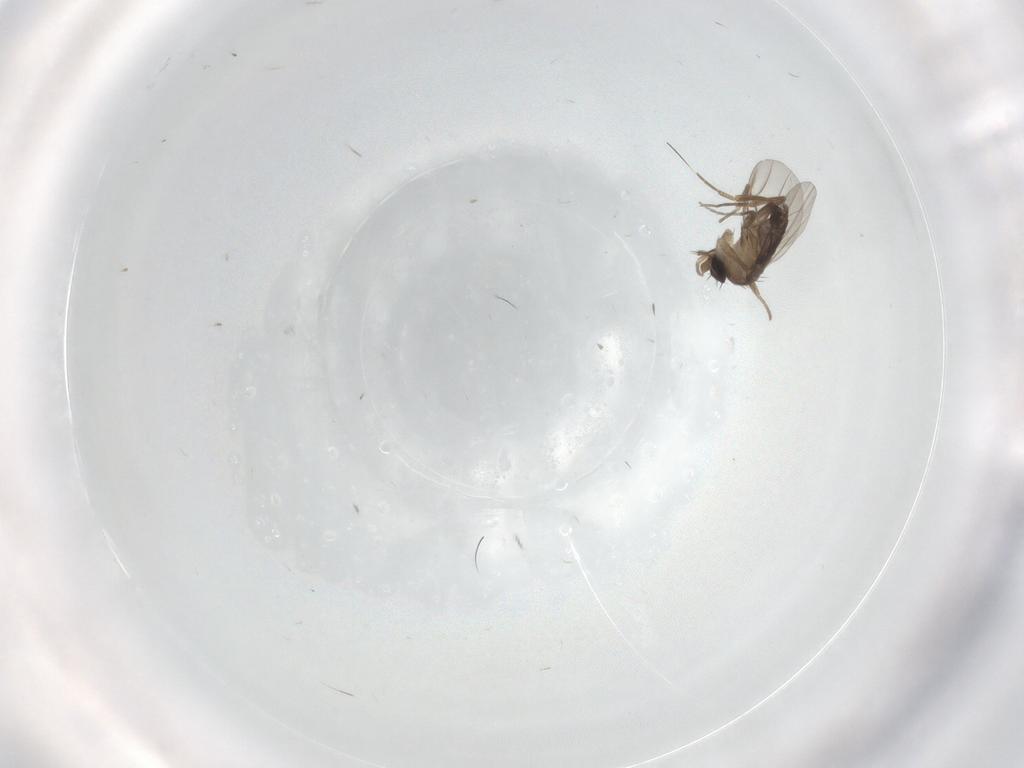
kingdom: Animalia
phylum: Arthropoda
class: Insecta
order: Diptera
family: Phoridae
